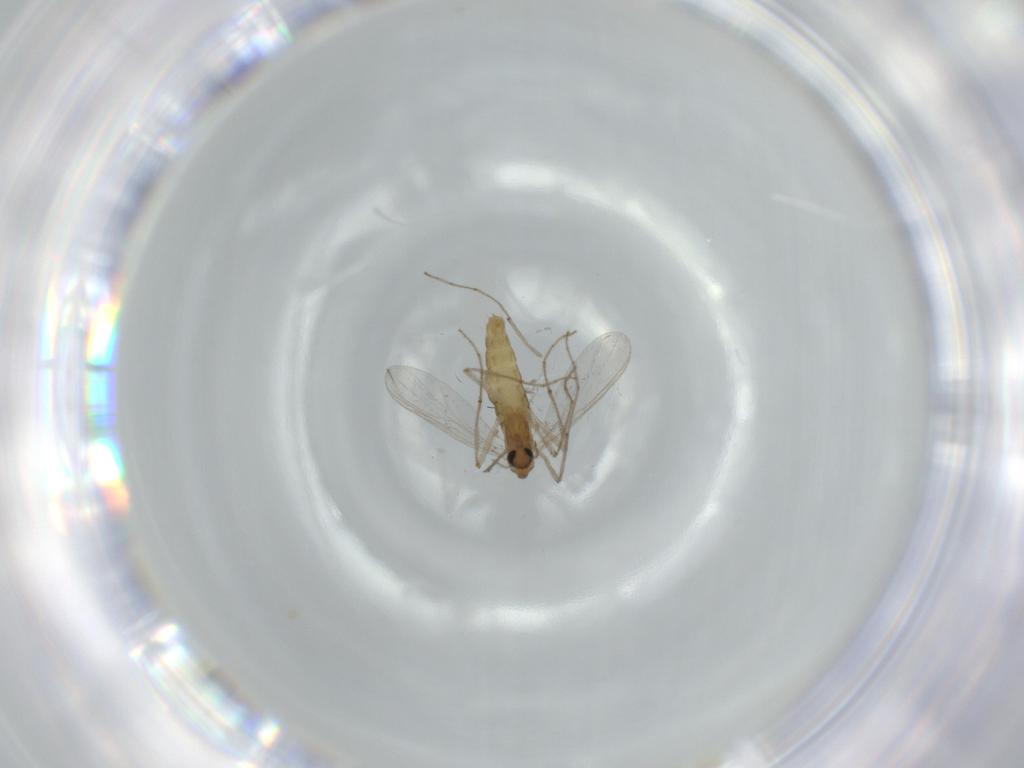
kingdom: Animalia
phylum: Arthropoda
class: Insecta
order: Diptera
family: Chironomidae
